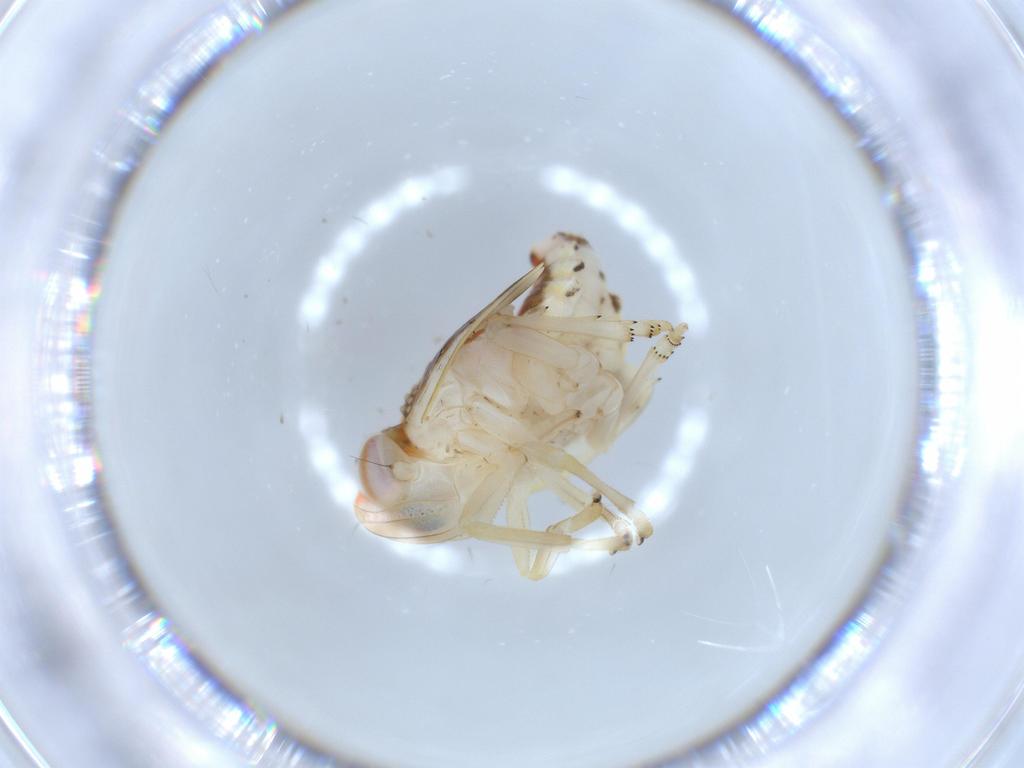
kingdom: Animalia
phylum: Arthropoda
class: Insecta
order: Hemiptera
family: Nogodinidae
